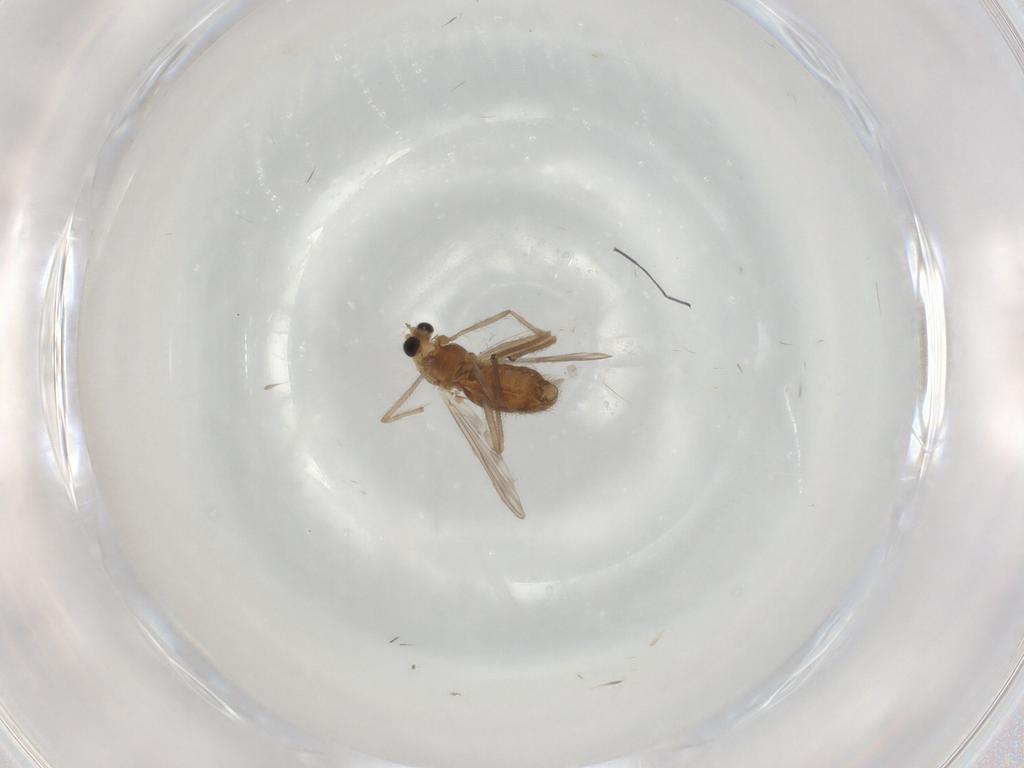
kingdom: Animalia
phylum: Arthropoda
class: Insecta
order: Diptera
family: Chironomidae
